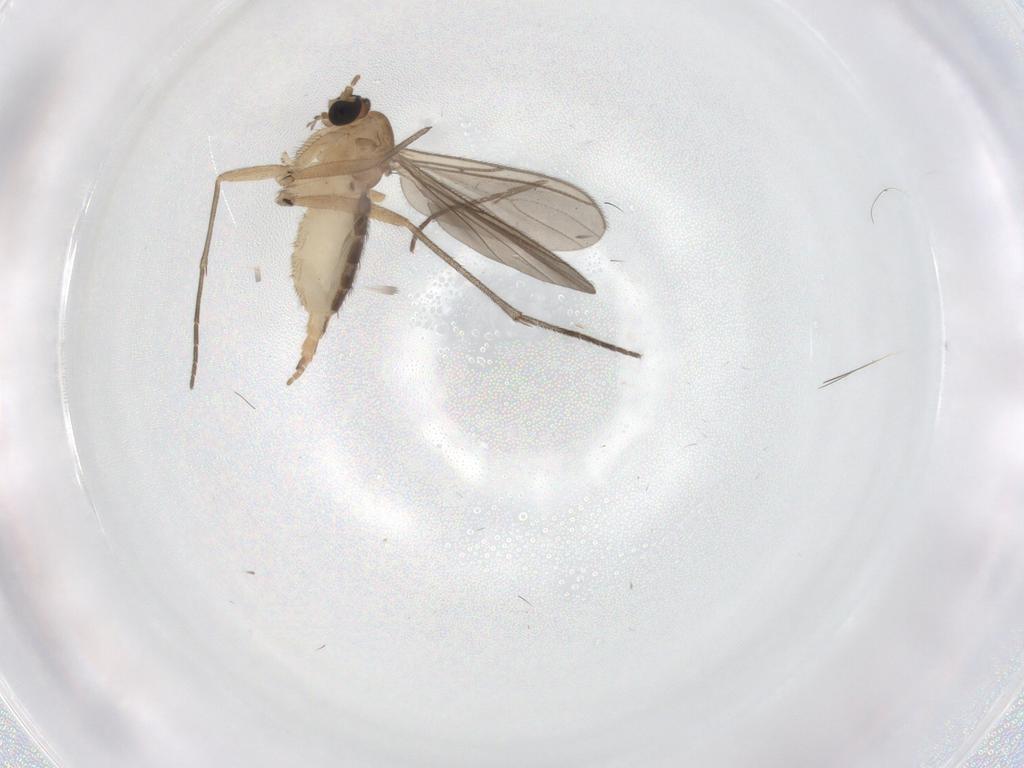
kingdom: Animalia
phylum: Arthropoda
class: Insecta
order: Diptera
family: Sciaridae
